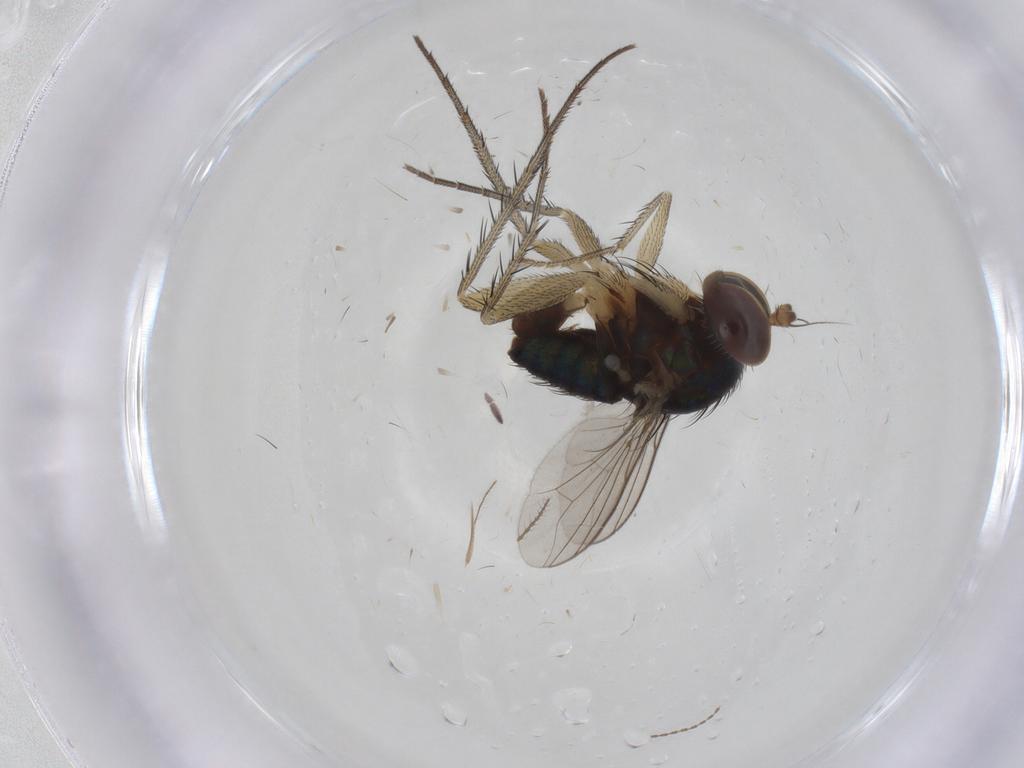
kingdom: Animalia
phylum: Arthropoda
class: Insecta
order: Diptera
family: Dolichopodidae
